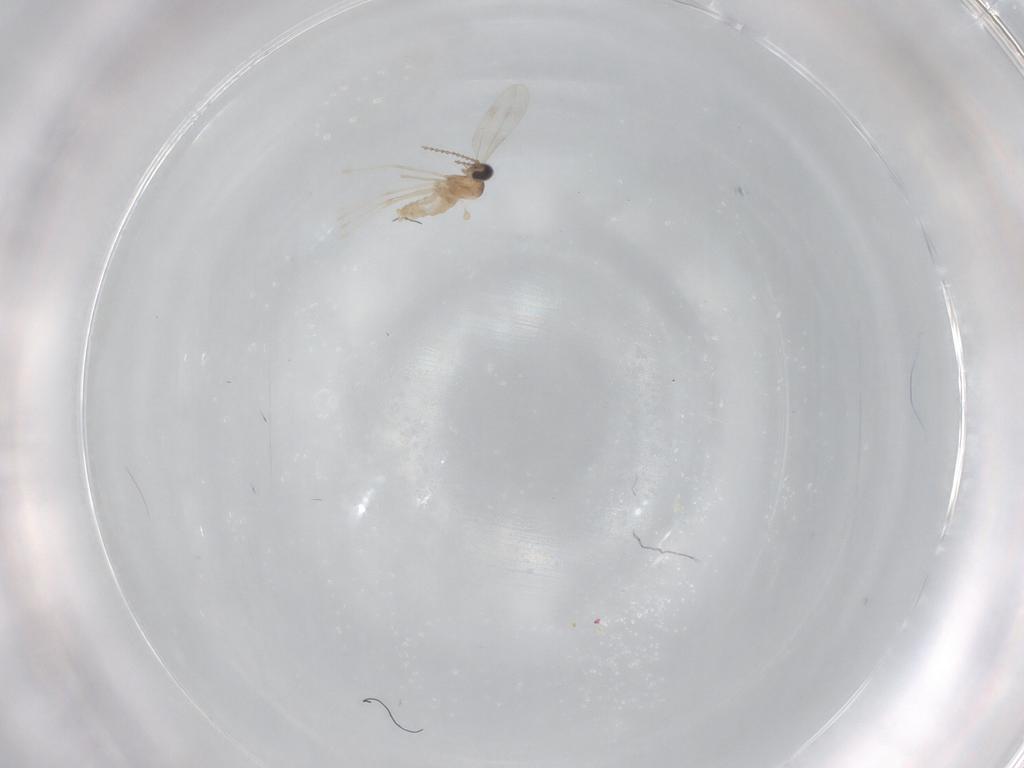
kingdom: Animalia
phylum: Arthropoda
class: Insecta
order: Diptera
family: Cecidomyiidae
